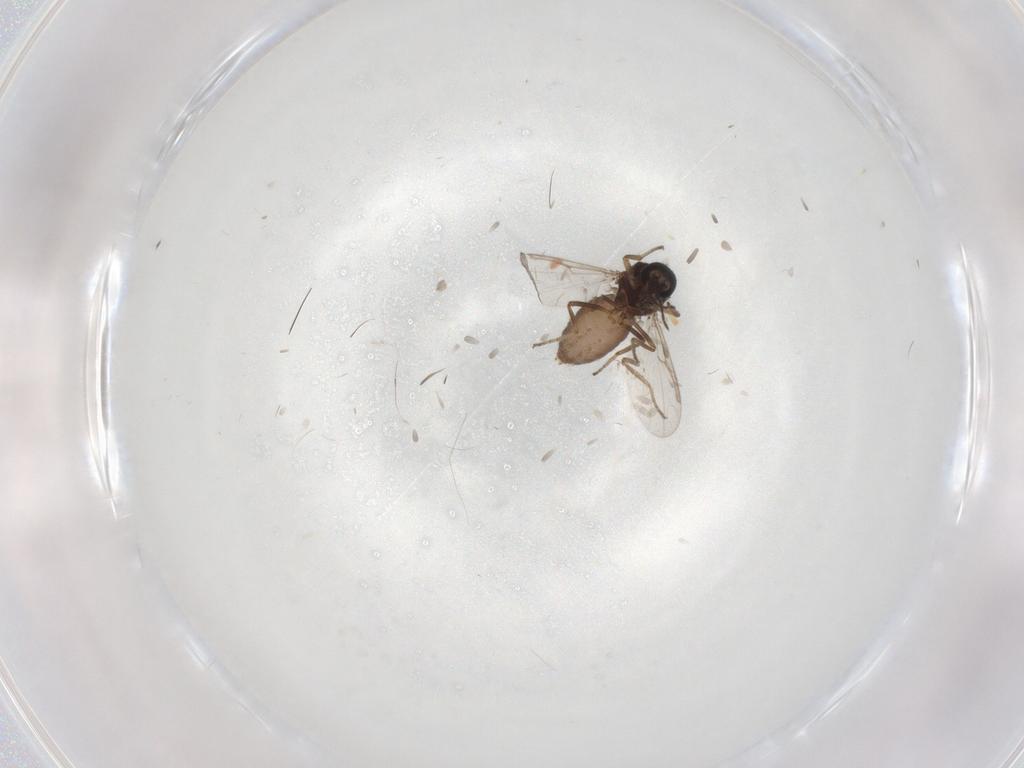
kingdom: Animalia
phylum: Arthropoda
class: Insecta
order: Diptera
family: Ceratopogonidae
